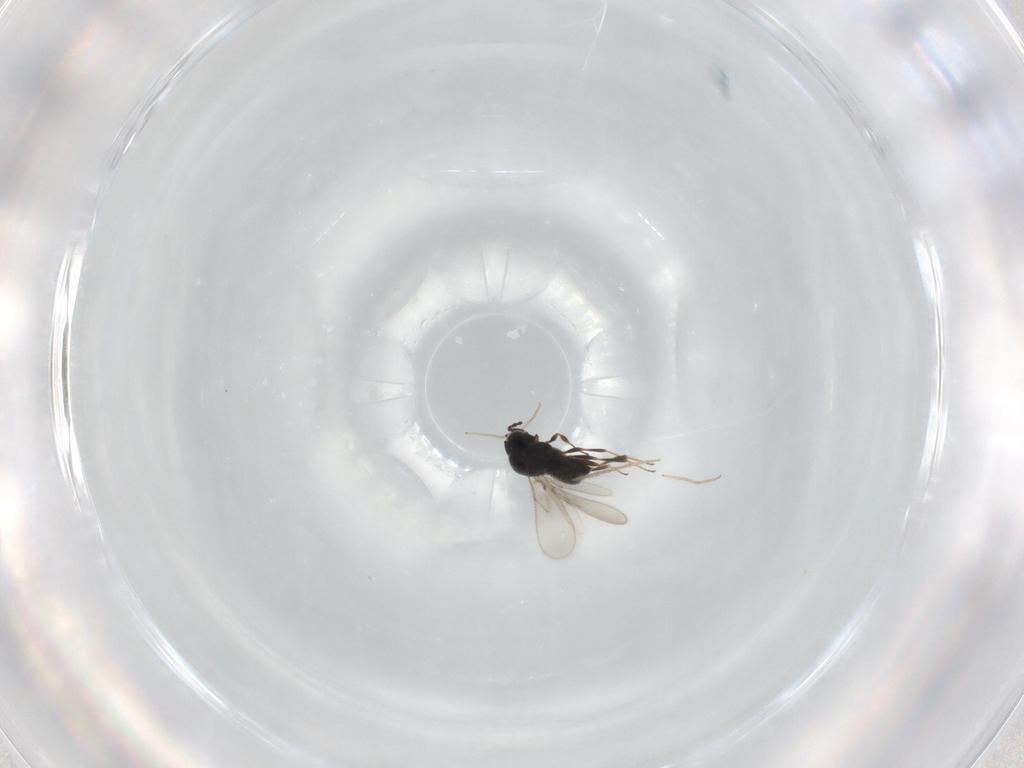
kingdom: Animalia
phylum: Arthropoda
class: Insecta
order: Hymenoptera
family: Scelionidae
